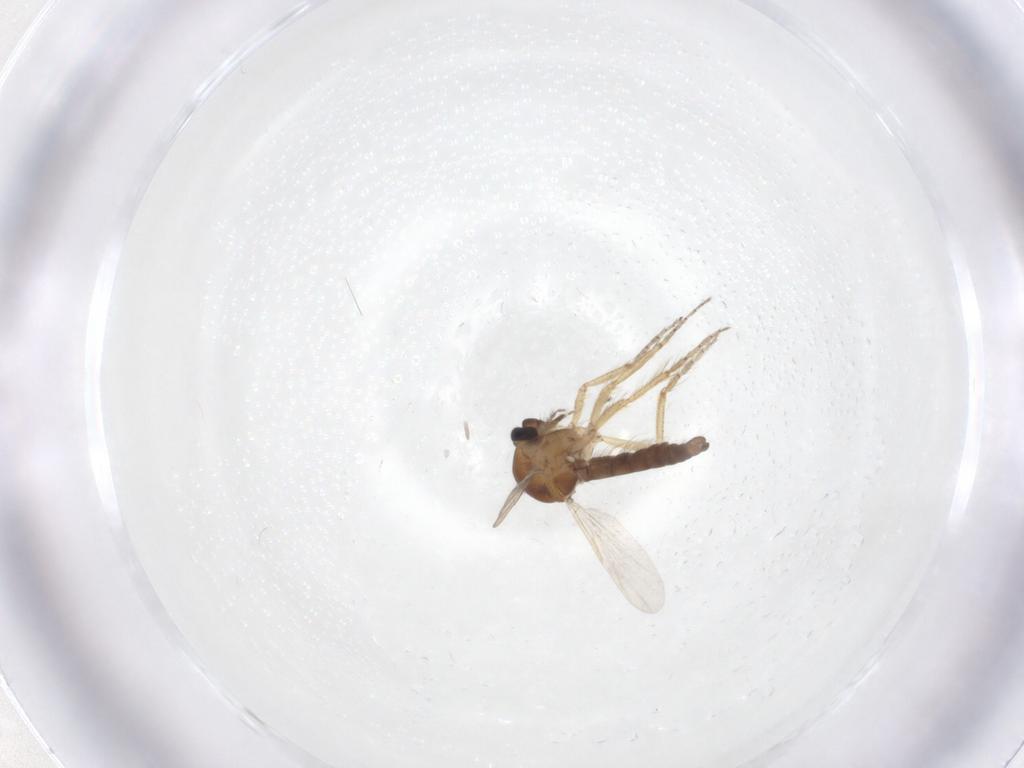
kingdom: Animalia
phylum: Arthropoda
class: Insecta
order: Diptera
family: Ceratopogonidae
